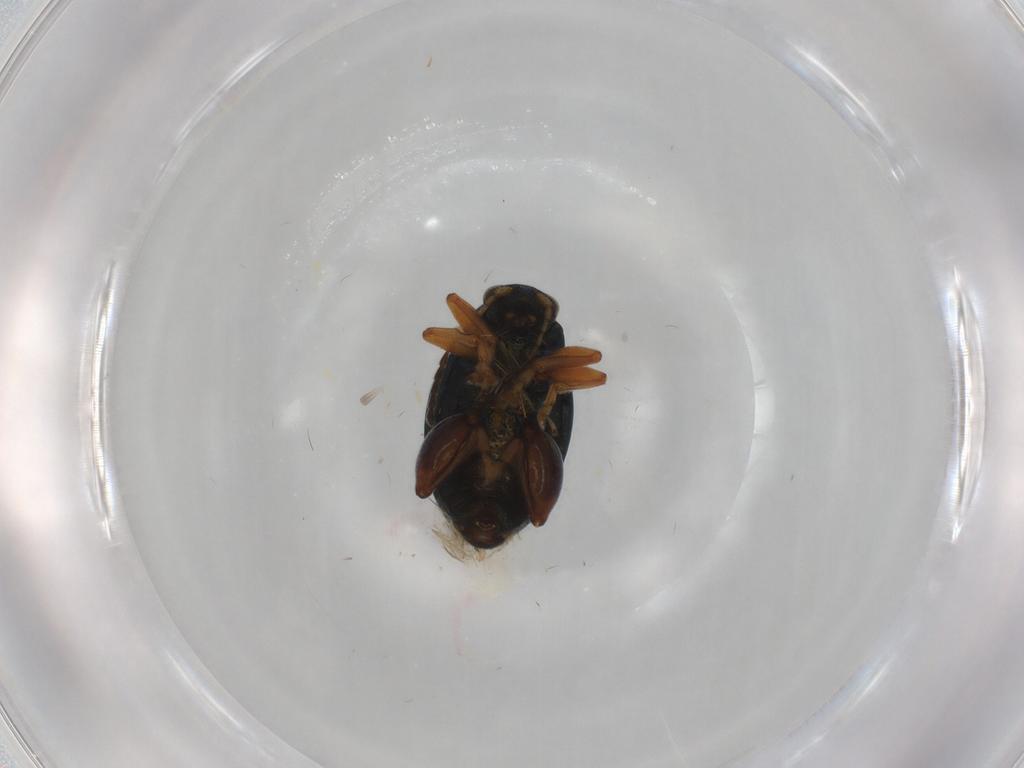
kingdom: Animalia
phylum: Arthropoda
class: Insecta
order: Coleoptera
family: Chrysomelidae
